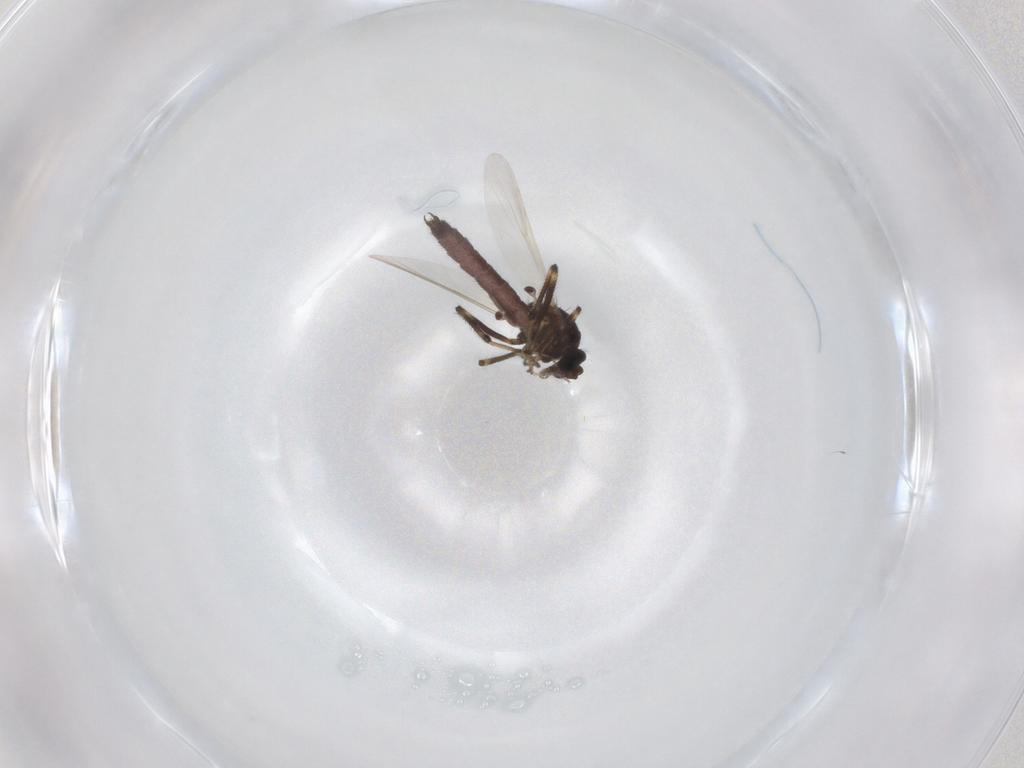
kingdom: Animalia
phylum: Arthropoda
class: Insecta
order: Diptera
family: Ceratopogonidae
